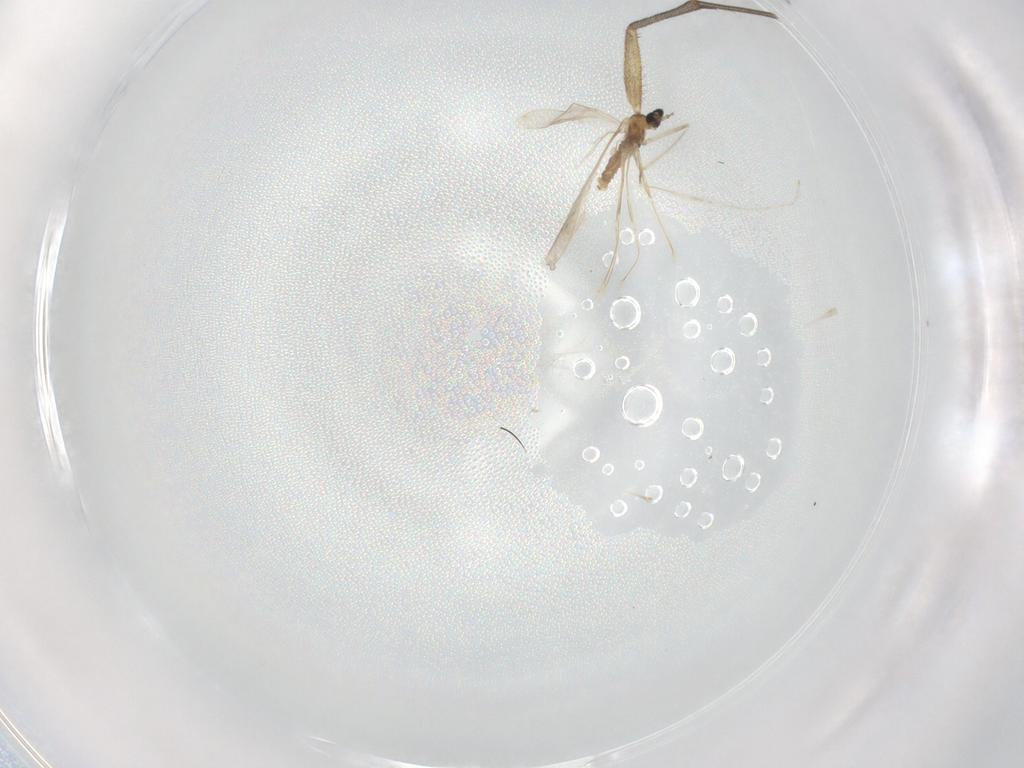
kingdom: Animalia
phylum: Arthropoda
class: Insecta
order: Diptera
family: Cecidomyiidae
